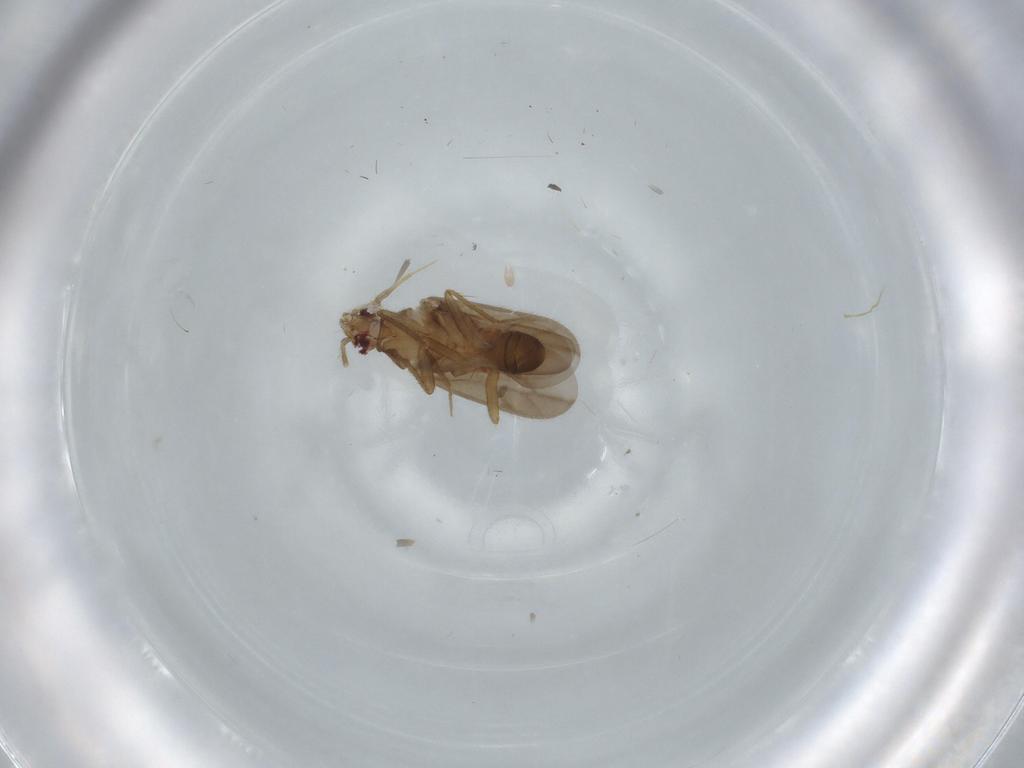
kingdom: Animalia
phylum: Arthropoda
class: Insecta
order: Hemiptera
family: Ceratocombidae
